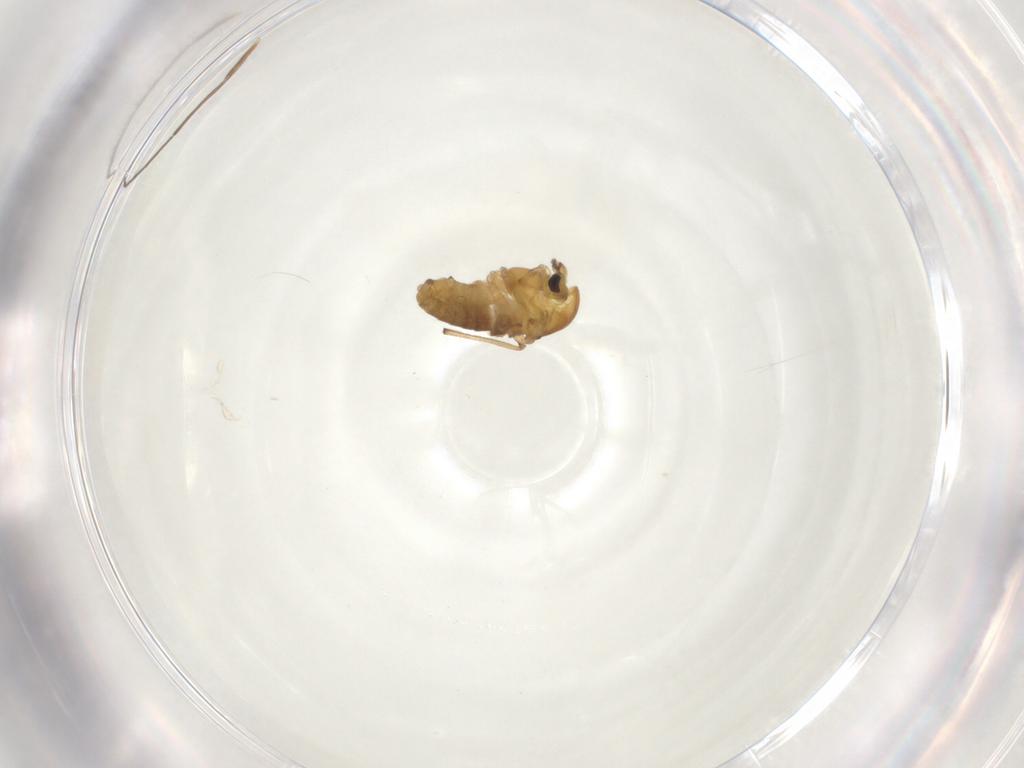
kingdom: Animalia
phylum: Arthropoda
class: Insecta
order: Diptera
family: Chironomidae
